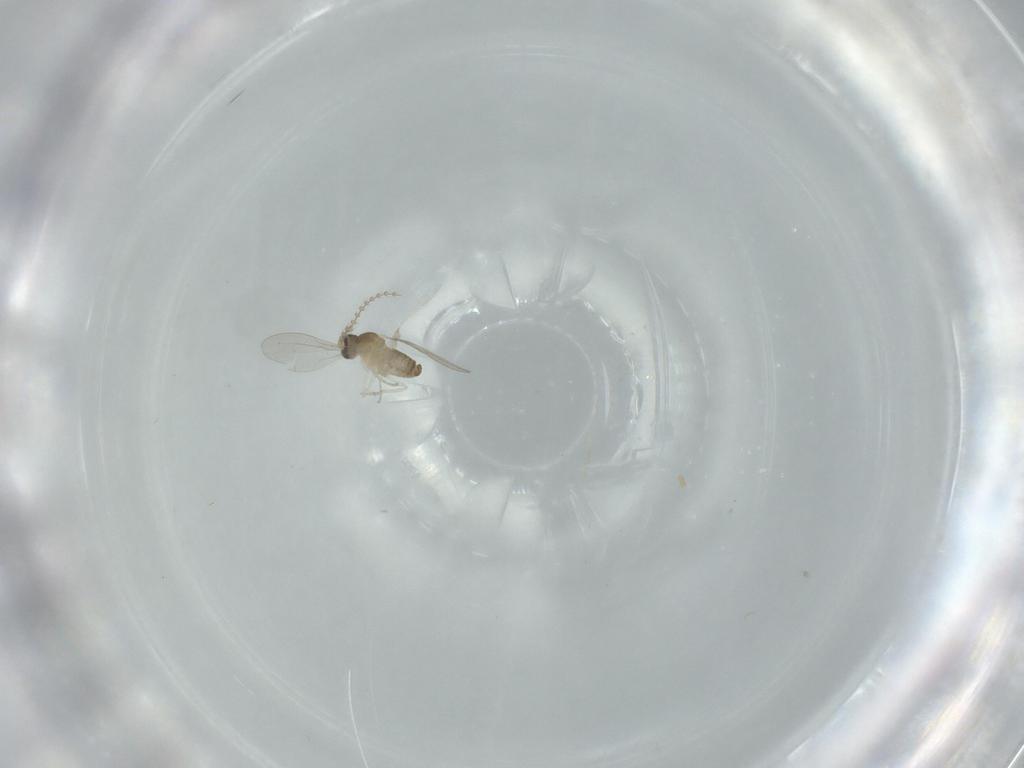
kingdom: Animalia
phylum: Arthropoda
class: Insecta
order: Diptera
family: Cecidomyiidae
